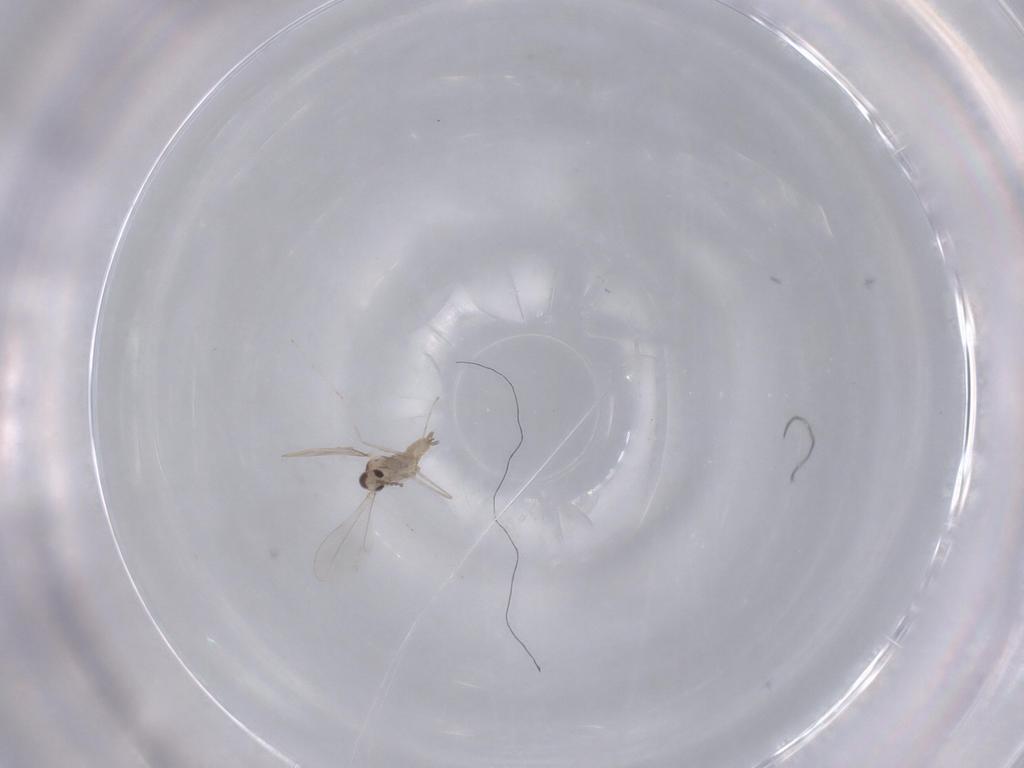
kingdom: Animalia
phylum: Arthropoda
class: Insecta
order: Diptera
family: Cecidomyiidae
